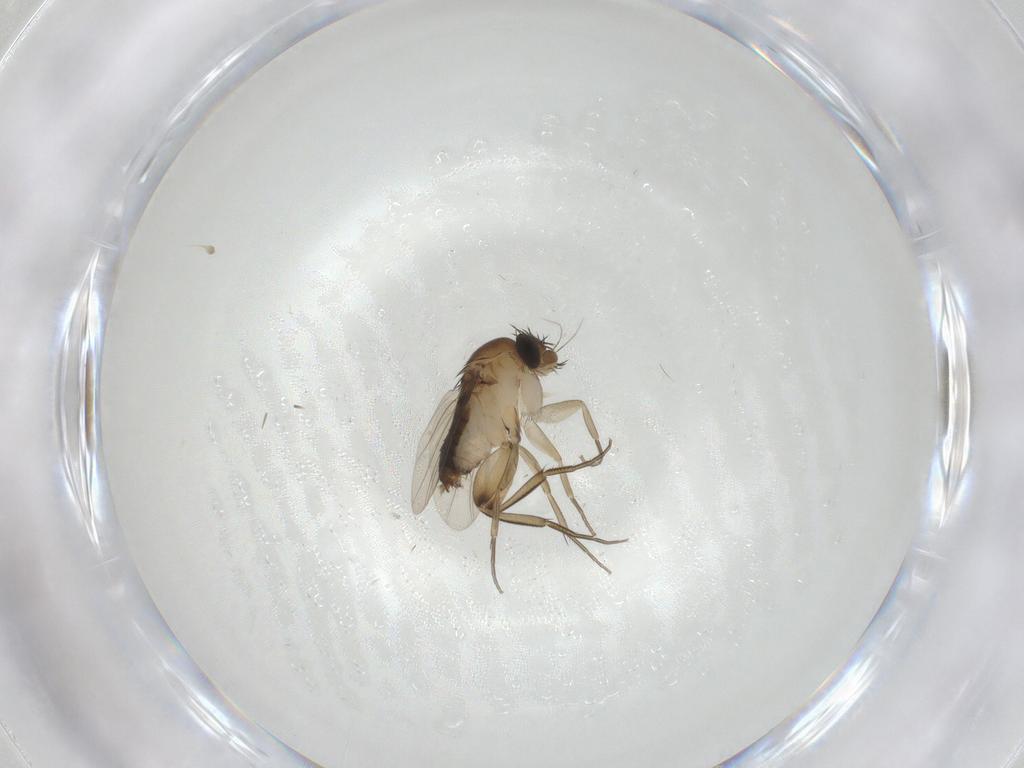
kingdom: Animalia
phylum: Arthropoda
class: Insecta
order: Diptera
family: Phoridae
